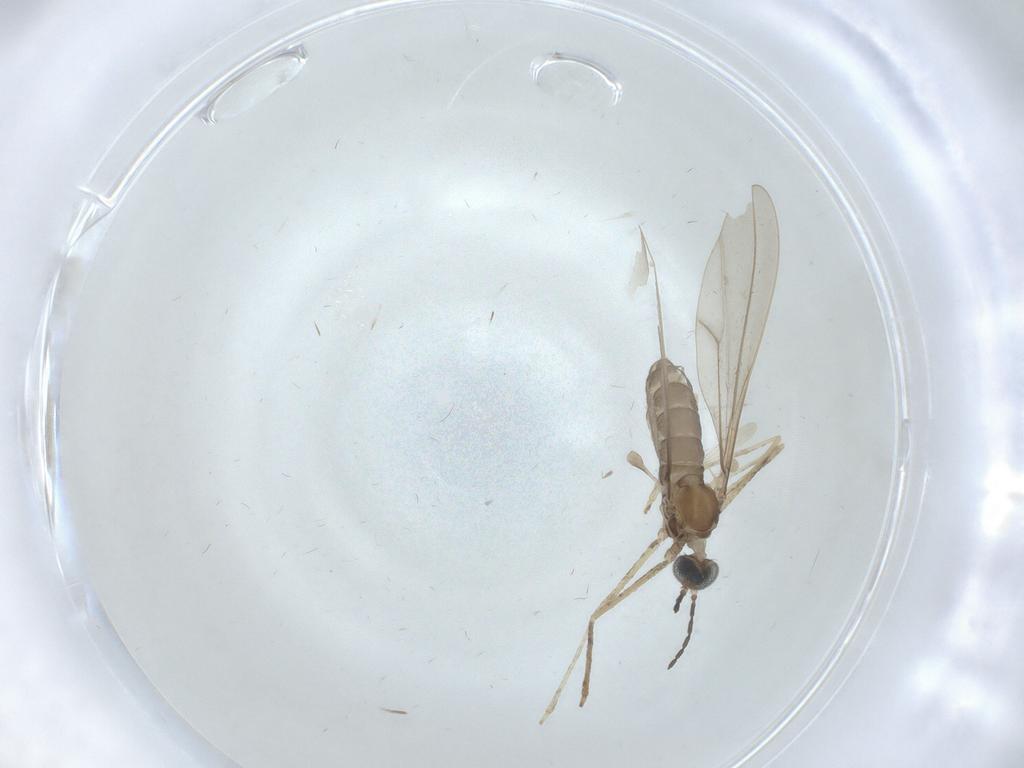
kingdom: Animalia
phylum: Arthropoda
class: Insecta
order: Diptera
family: Cecidomyiidae
